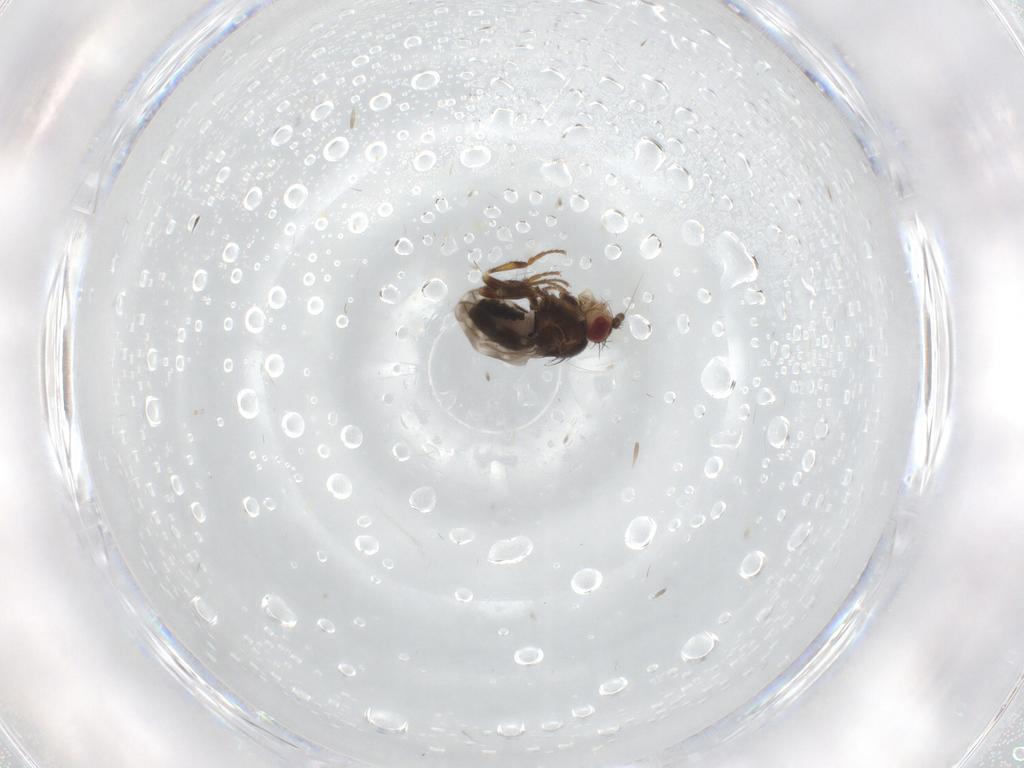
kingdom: Animalia
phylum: Arthropoda
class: Insecta
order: Diptera
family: Sphaeroceridae
